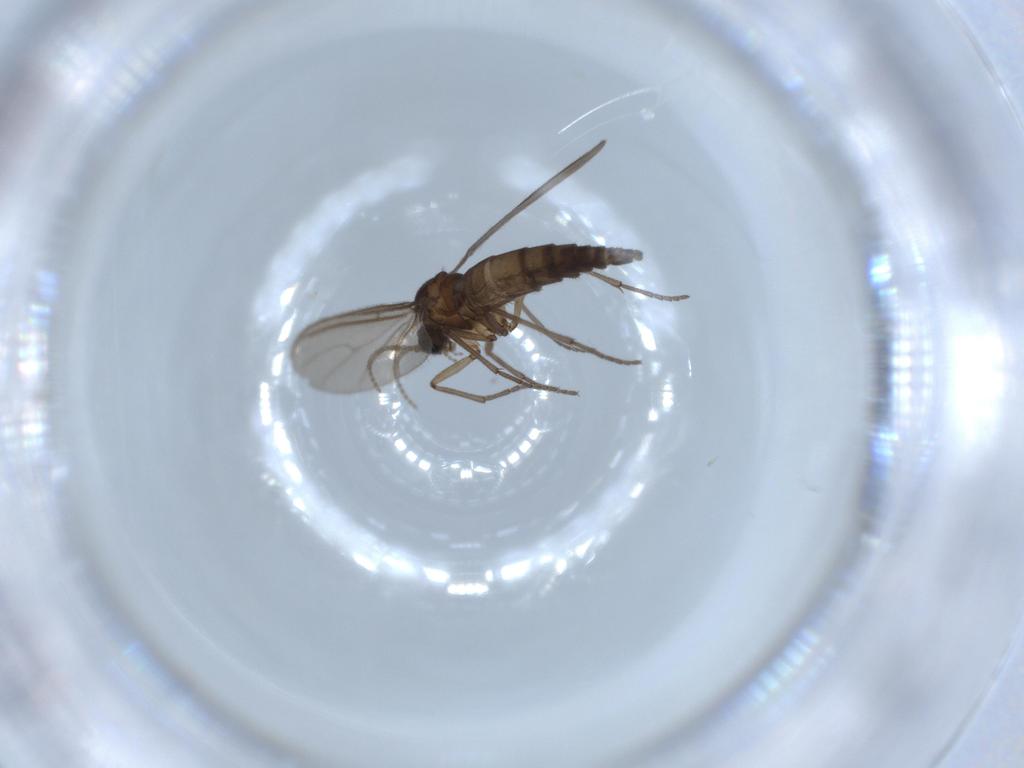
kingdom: Animalia
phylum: Arthropoda
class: Insecta
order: Diptera
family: Sciaridae
